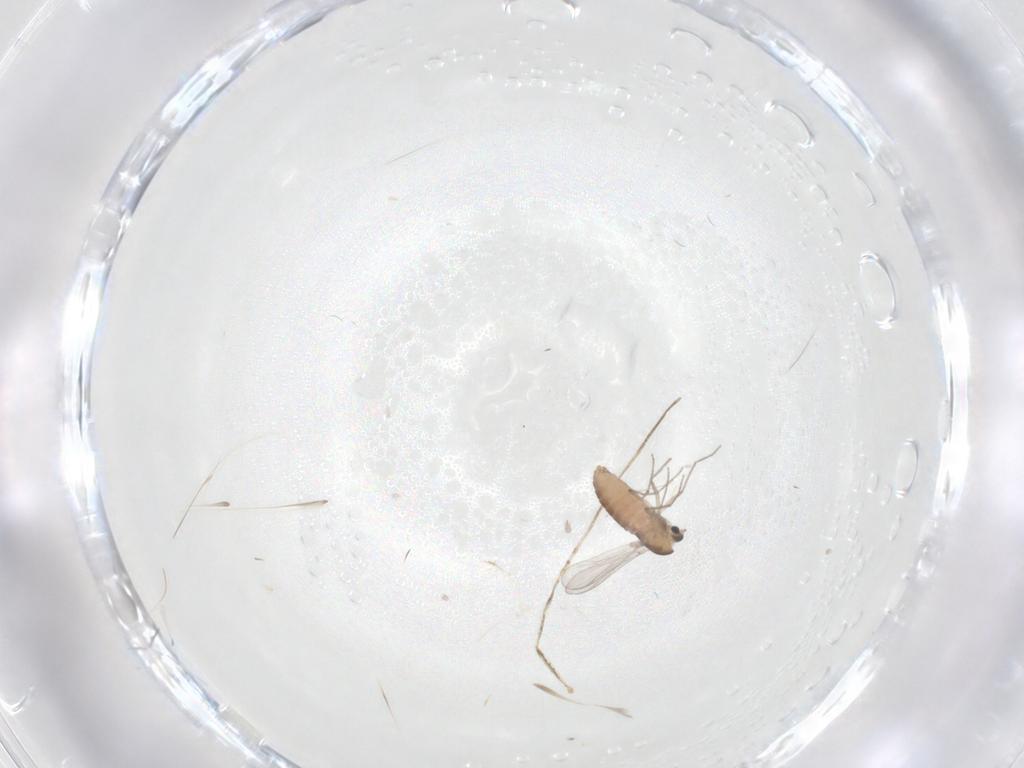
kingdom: Animalia
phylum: Arthropoda
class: Insecta
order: Diptera
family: Chironomidae
